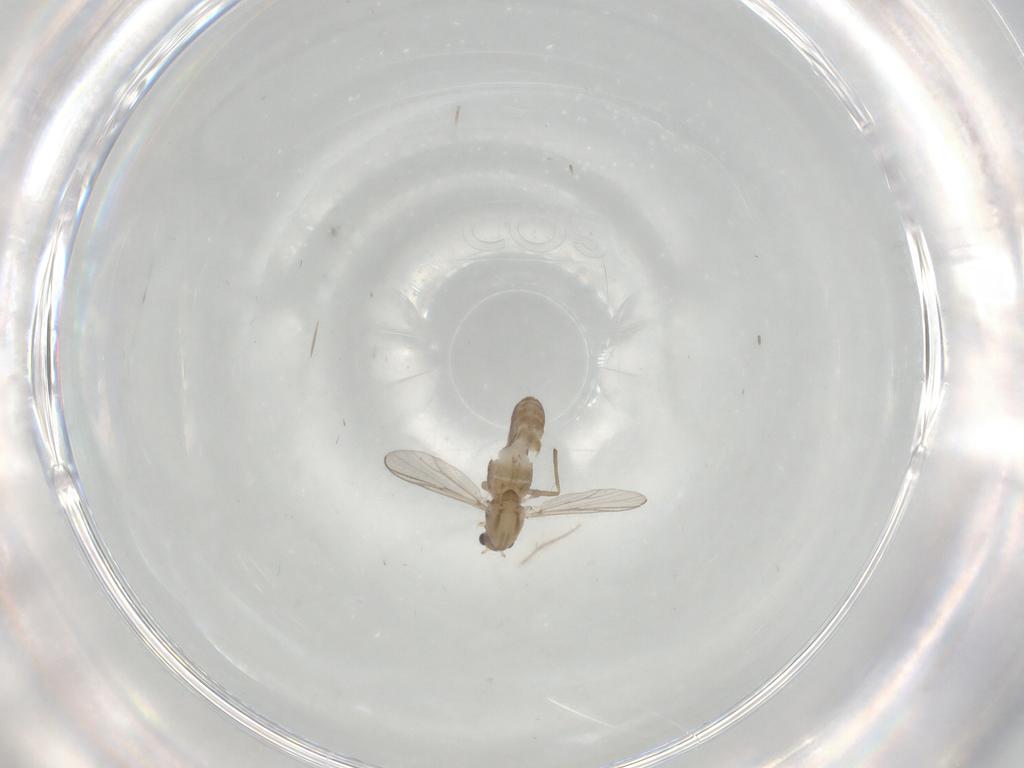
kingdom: Animalia
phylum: Arthropoda
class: Insecta
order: Diptera
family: Chironomidae
